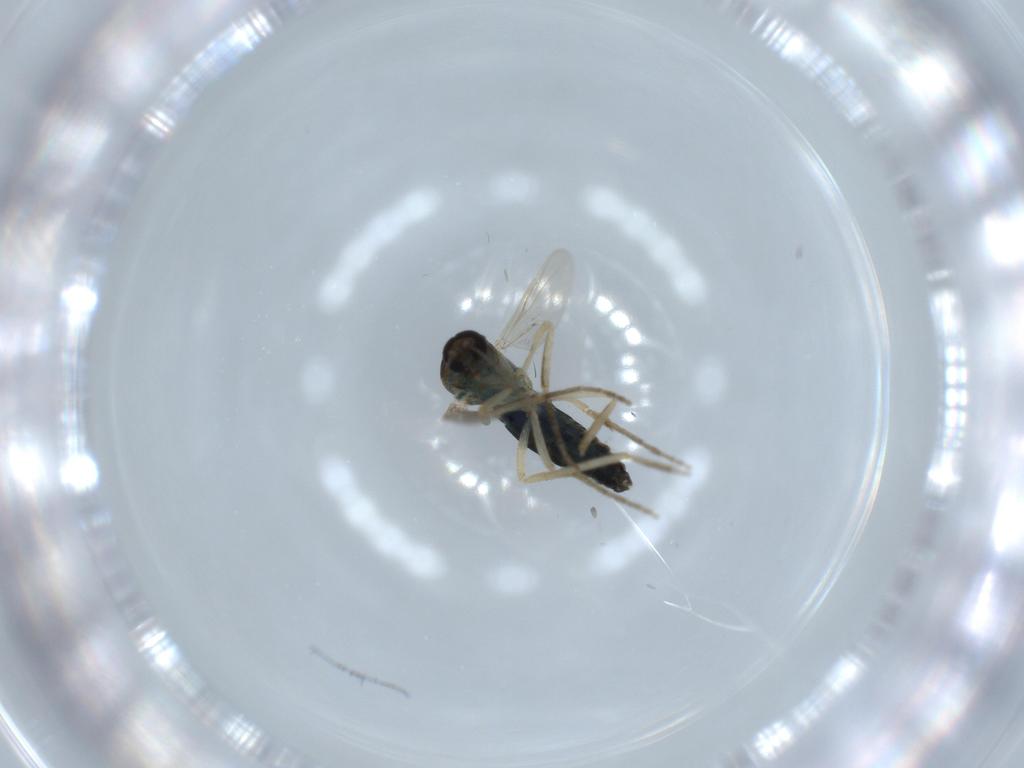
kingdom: Animalia
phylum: Arthropoda
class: Insecta
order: Diptera
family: Ceratopogonidae
